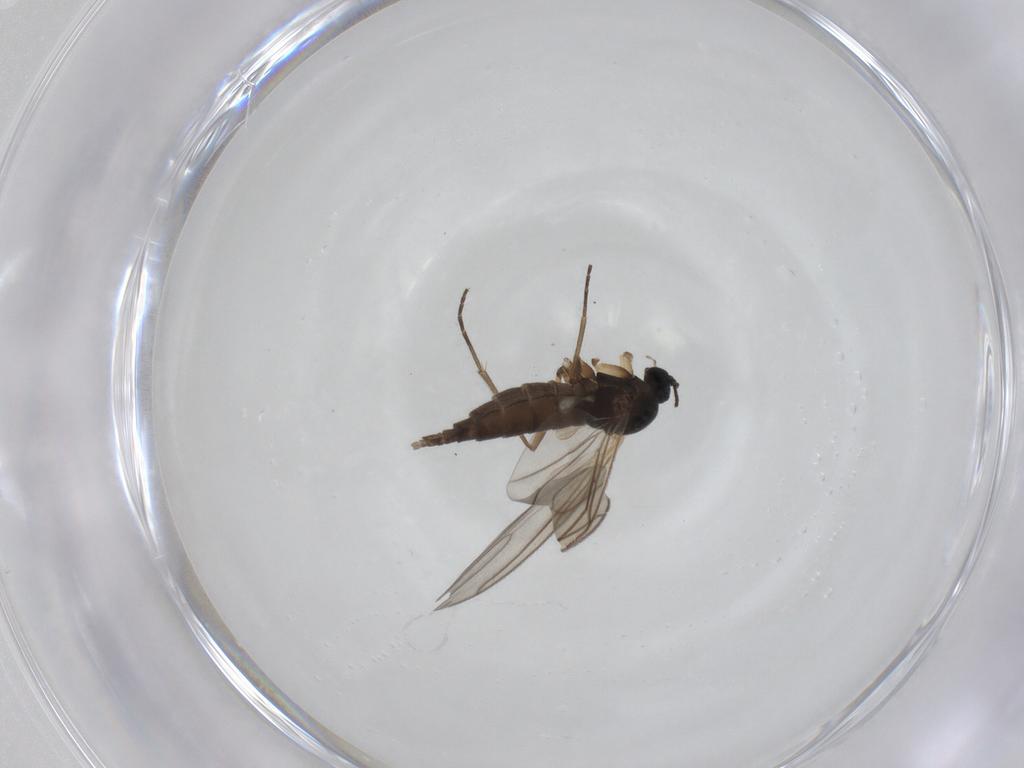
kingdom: Animalia
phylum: Arthropoda
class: Insecta
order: Diptera
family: Sciaridae
